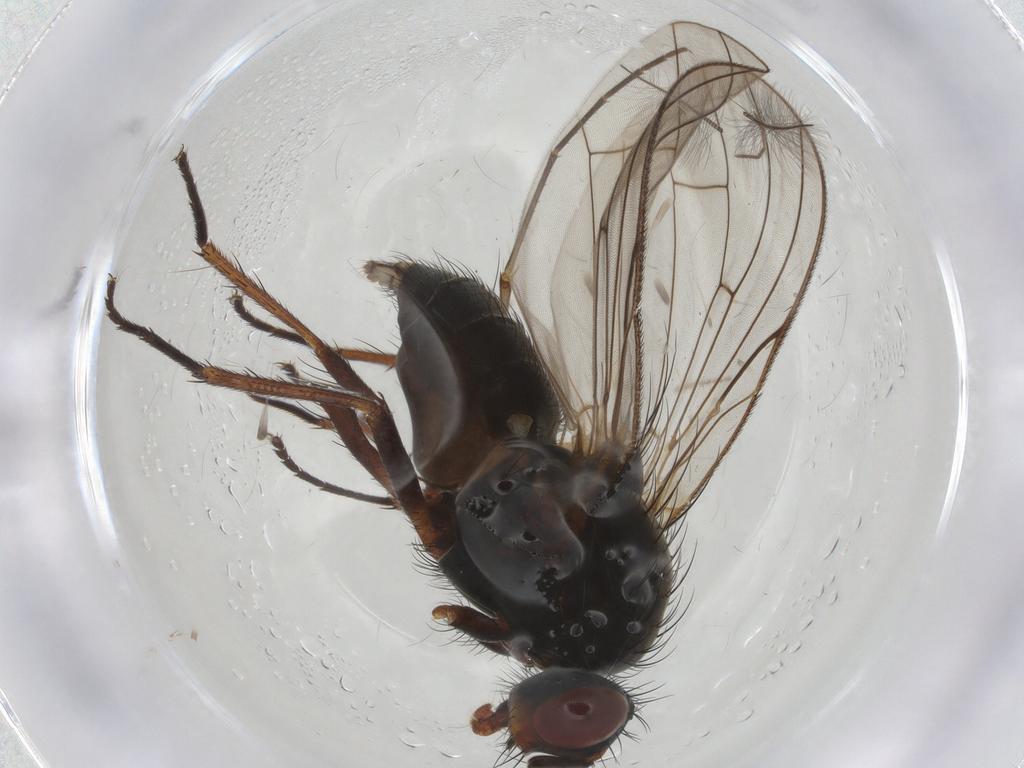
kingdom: Animalia
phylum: Arthropoda
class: Insecta
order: Diptera
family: Anthomyiidae
